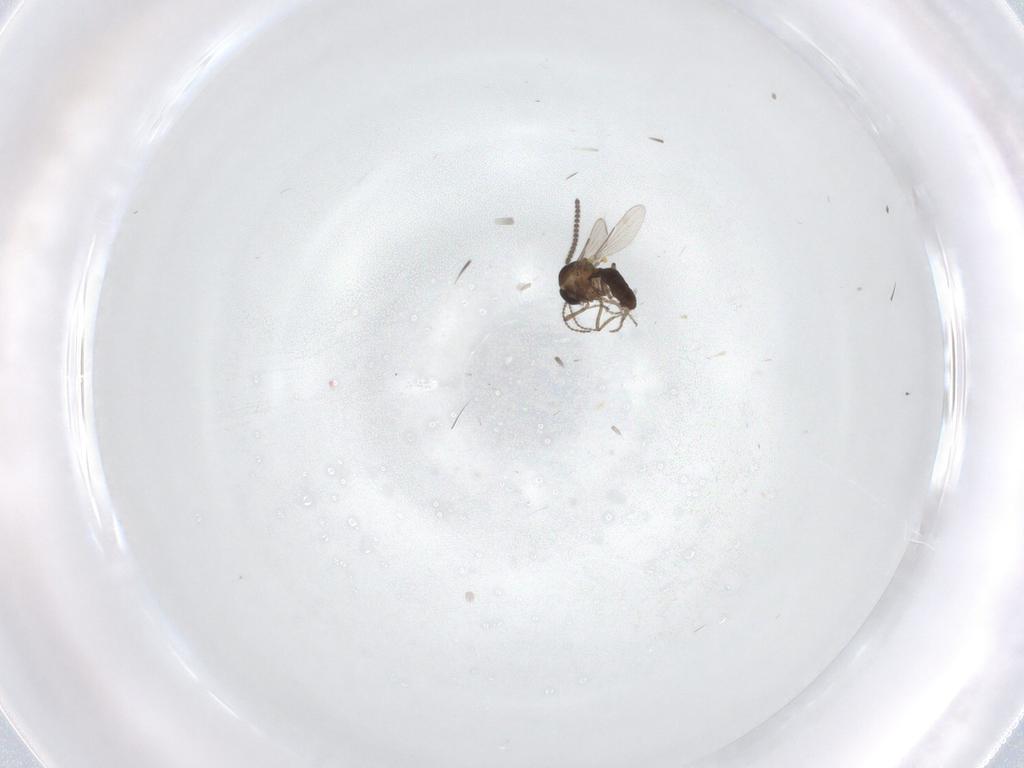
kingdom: Animalia
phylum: Arthropoda
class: Insecta
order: Diptera
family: Ceratopogonidae
